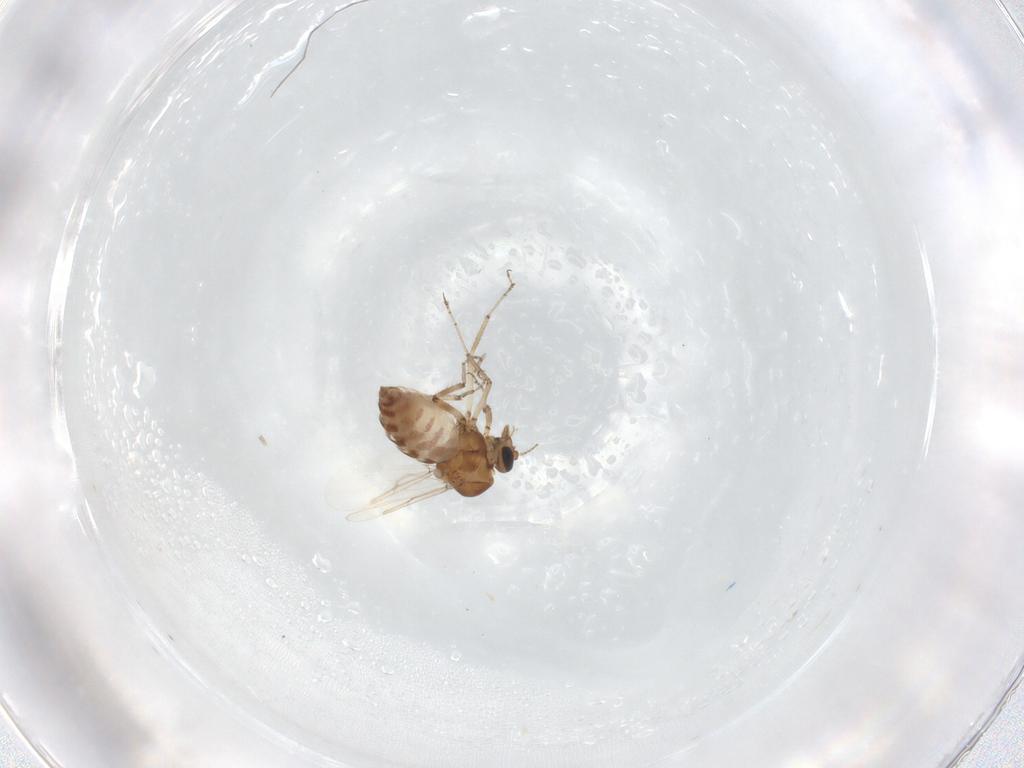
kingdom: Animalia
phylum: Arthropoda
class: Insecta
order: Diptera
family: Ceratopogonidae
